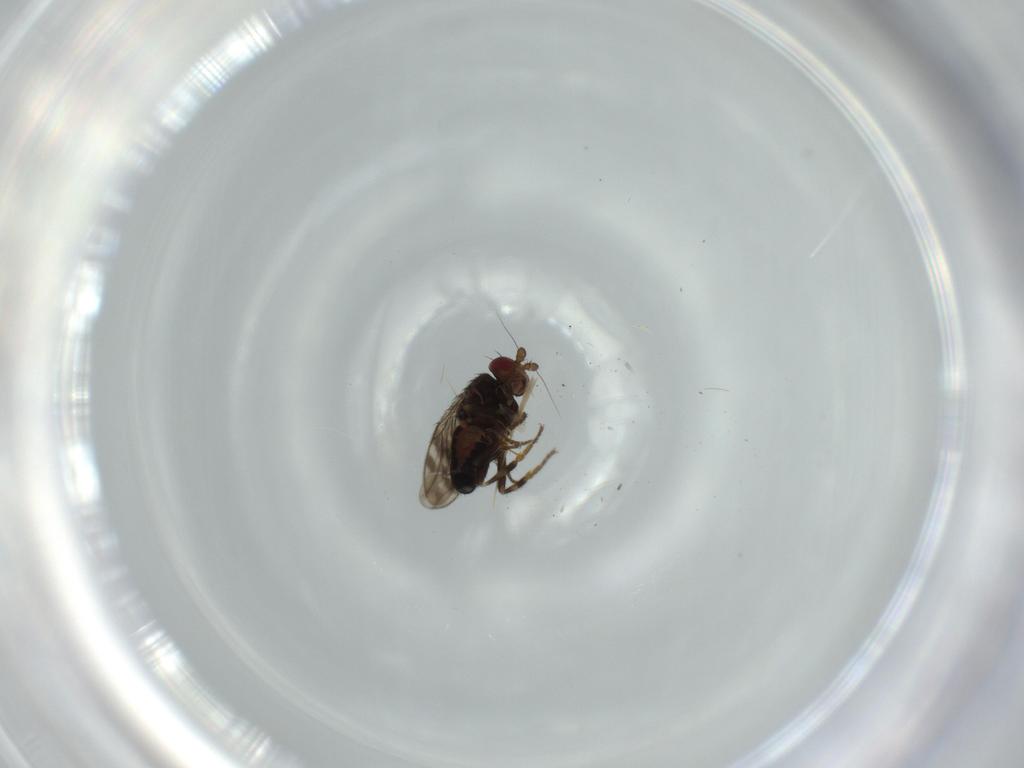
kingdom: Animalia
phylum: Arthropoda
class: Insecta
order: Diptera
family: Sphaeroceridae
